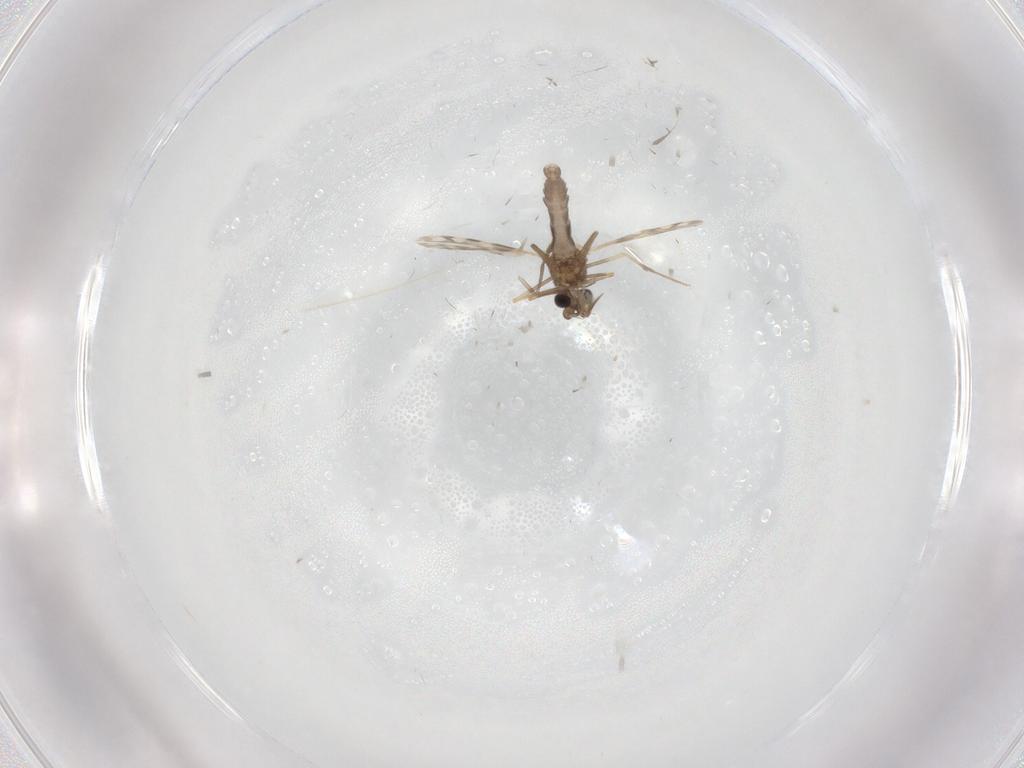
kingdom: Animalia
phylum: Arthropoda
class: Insecta
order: Diptera
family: Psychodidae
